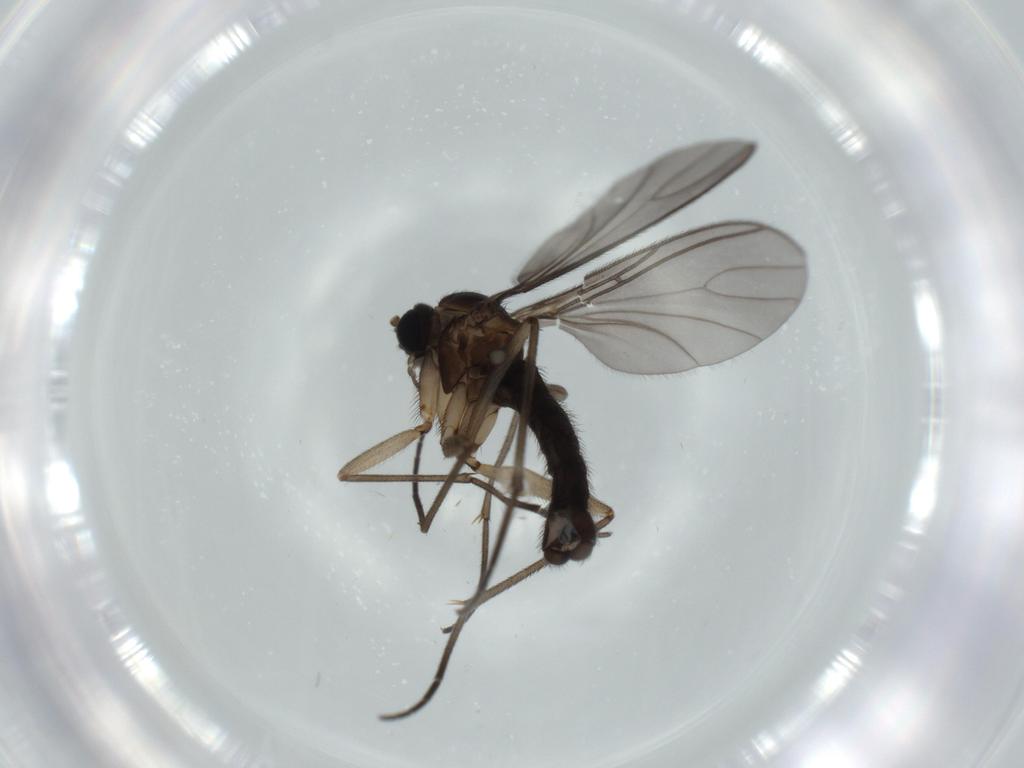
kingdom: Animalia
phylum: Arthropoda
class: Insecta
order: Diptera
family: Sciaridae
